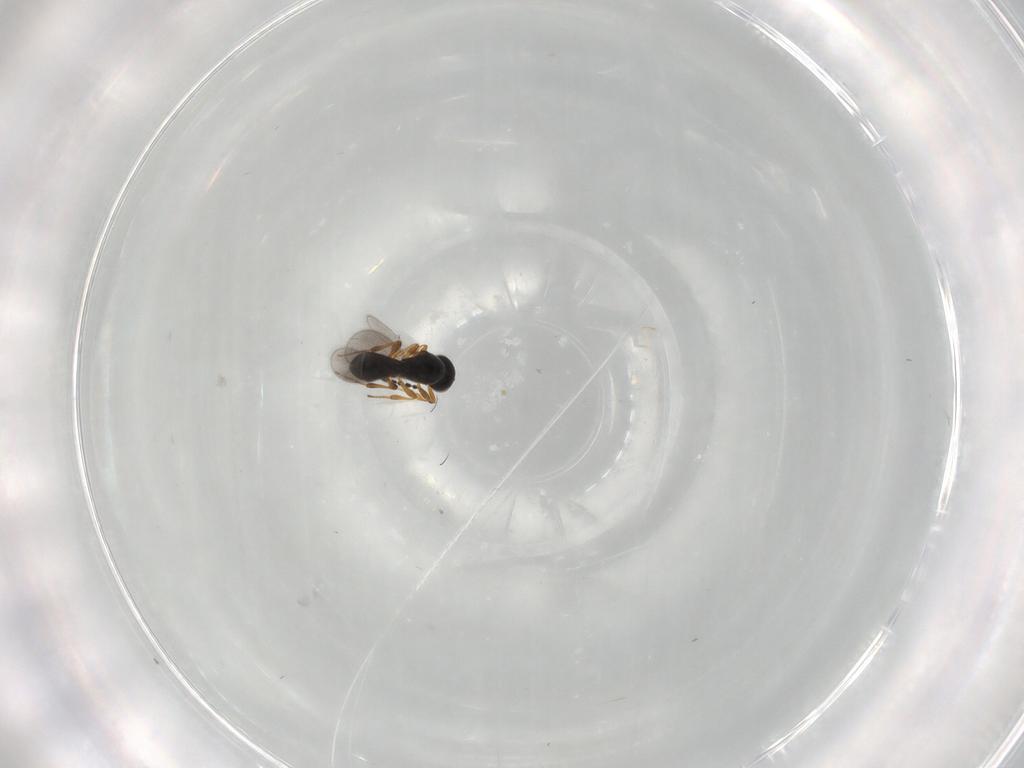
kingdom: Animalia
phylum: Arthropoda
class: Insecta
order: Hymenoptera
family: Platygastridae
